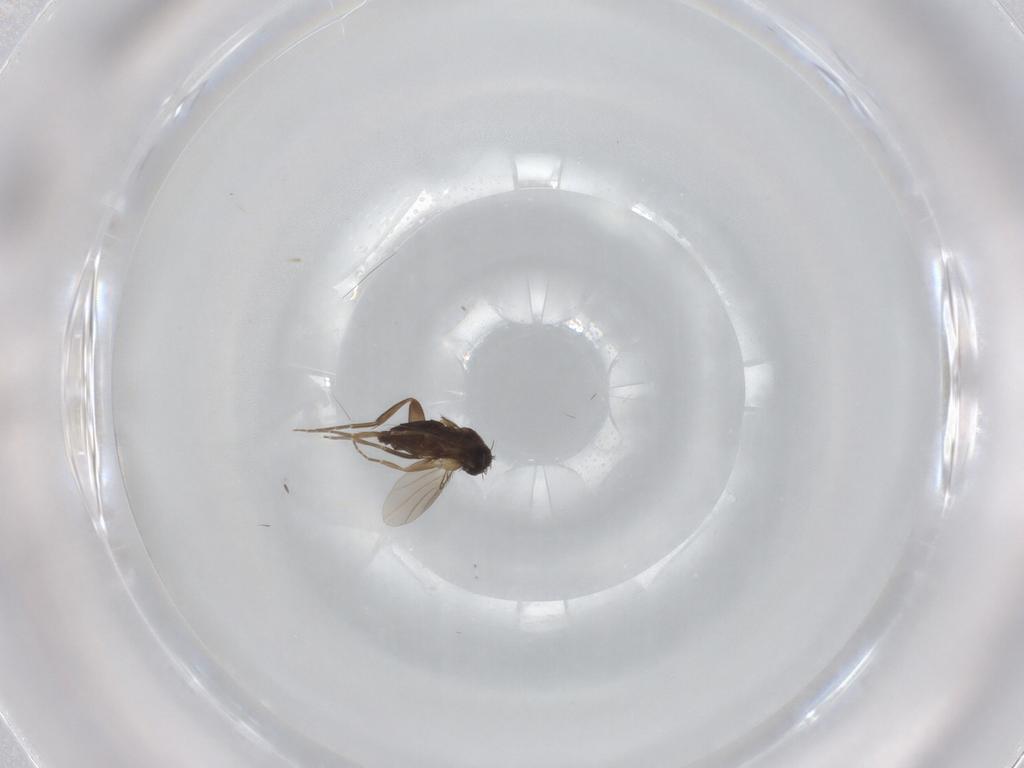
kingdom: Animalia
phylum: Arthropoda
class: Insecta
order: Diptera
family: Phoridae
